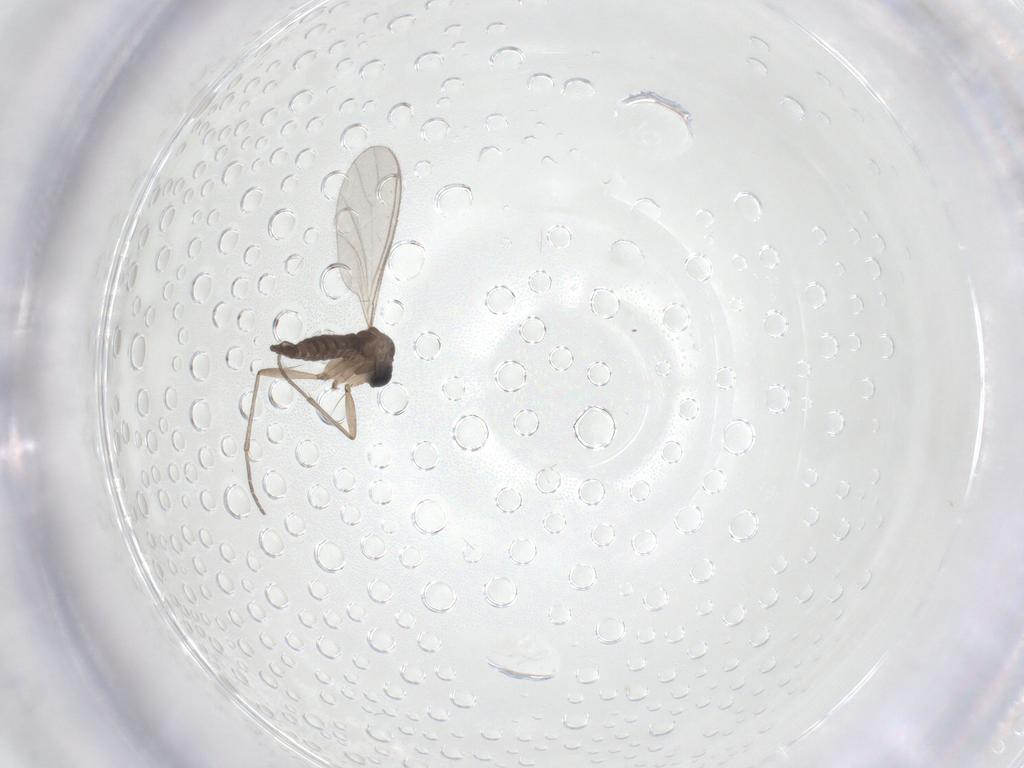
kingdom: Animalia
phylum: Arthropoda
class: Insecta
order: Diptera
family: Sciaridae
